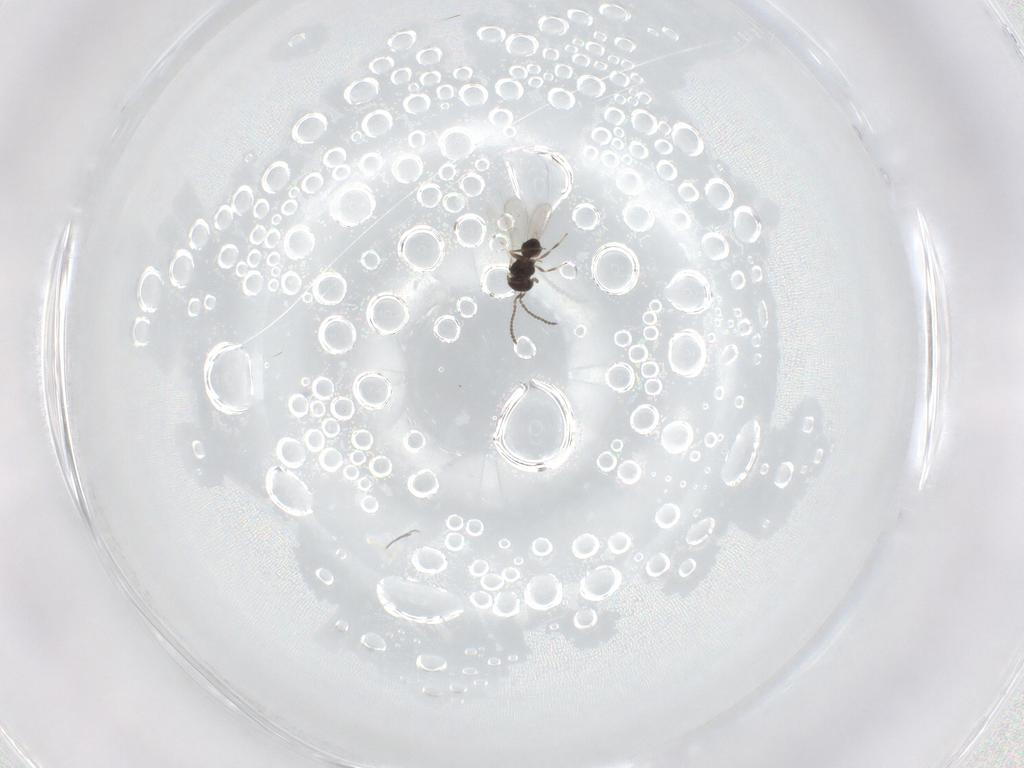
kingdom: Animalia
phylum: Arthropoda
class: Insecta
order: Hymenoptera
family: Scelionidae
